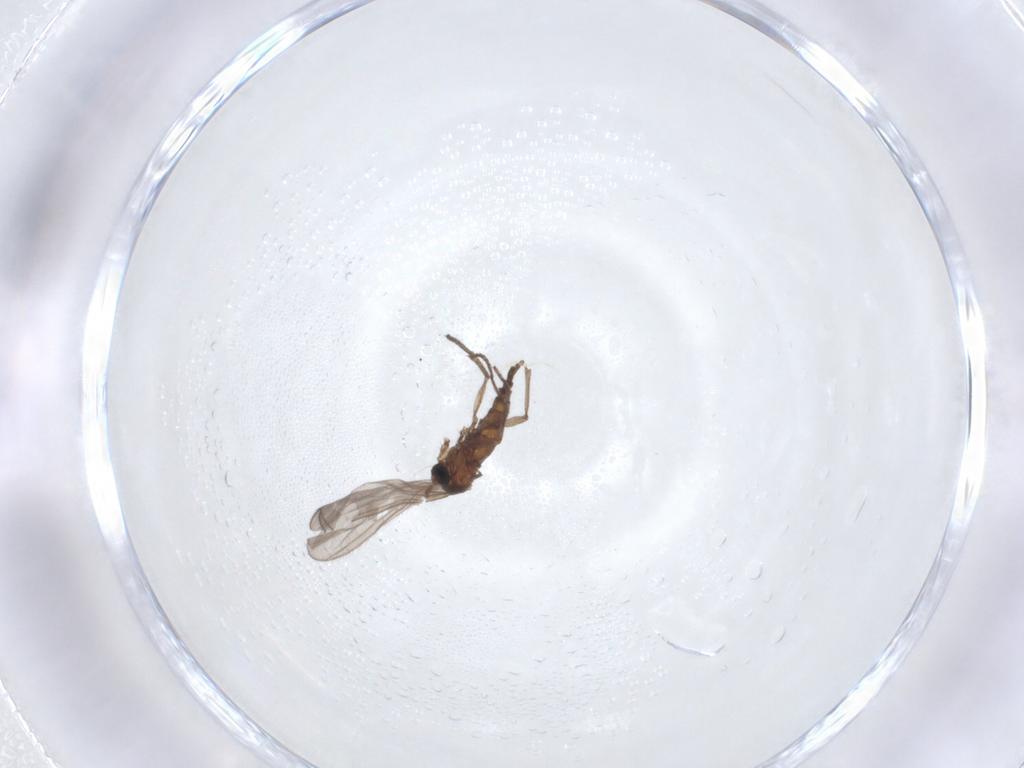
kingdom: Animalia
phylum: Arthropoda
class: Insecta
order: Diptera
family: Sciaridae
